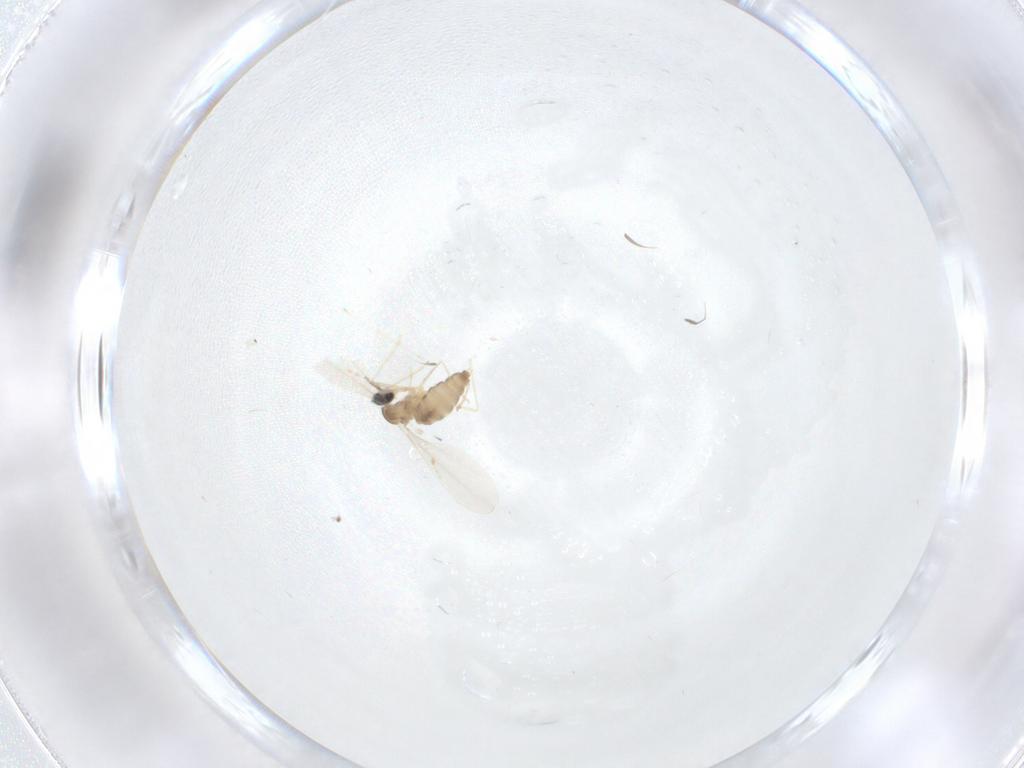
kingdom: Animalia
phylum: Arthropoda
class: Insecta
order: Diptera
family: Cecidomyiidae
